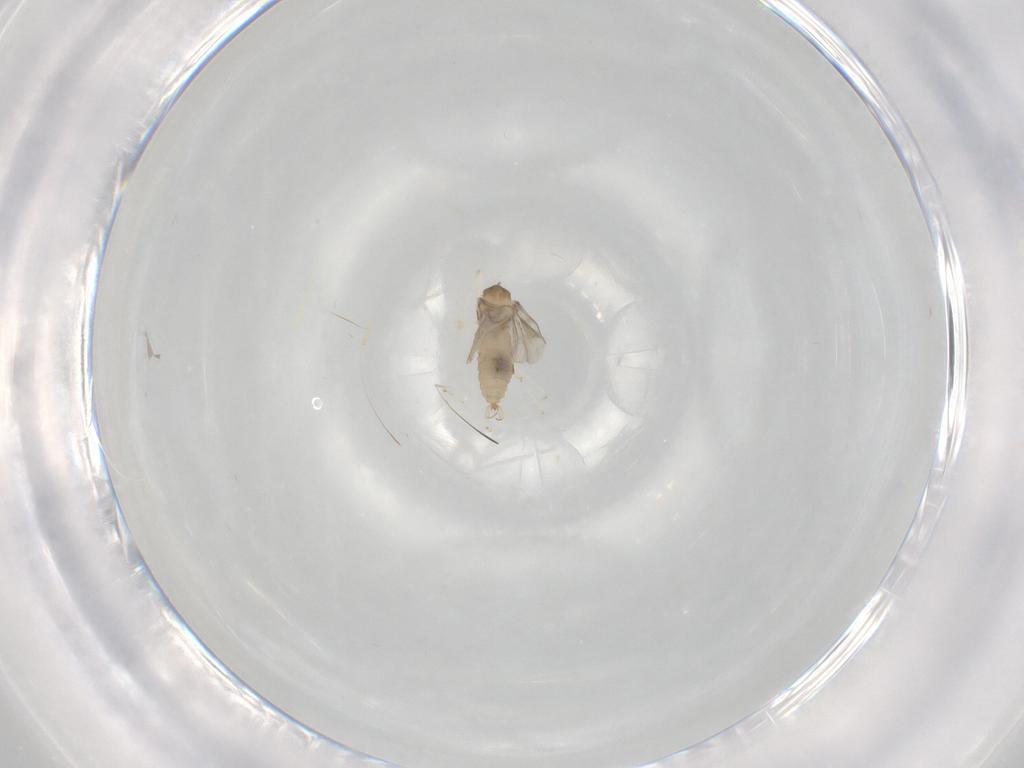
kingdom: Animalia
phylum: Arthropoda
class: Insecta
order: Diptera
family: Cecidomyiidae
